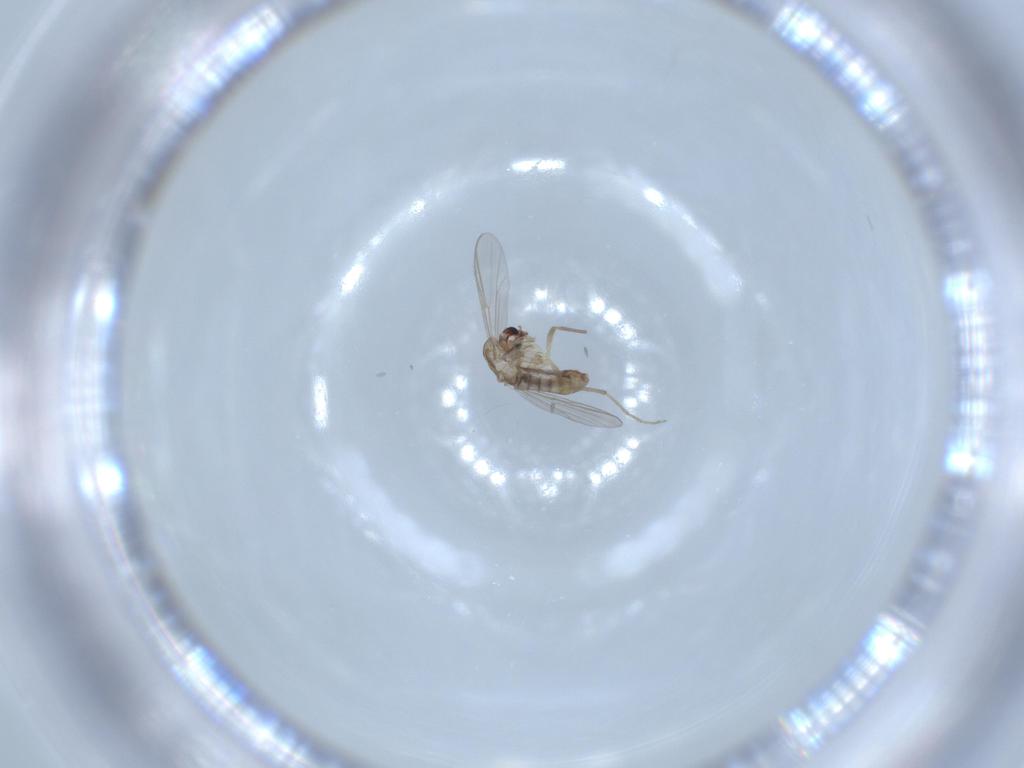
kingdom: Animalia
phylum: Arthropoda
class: Insecta
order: Diptera
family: Chironomidae
